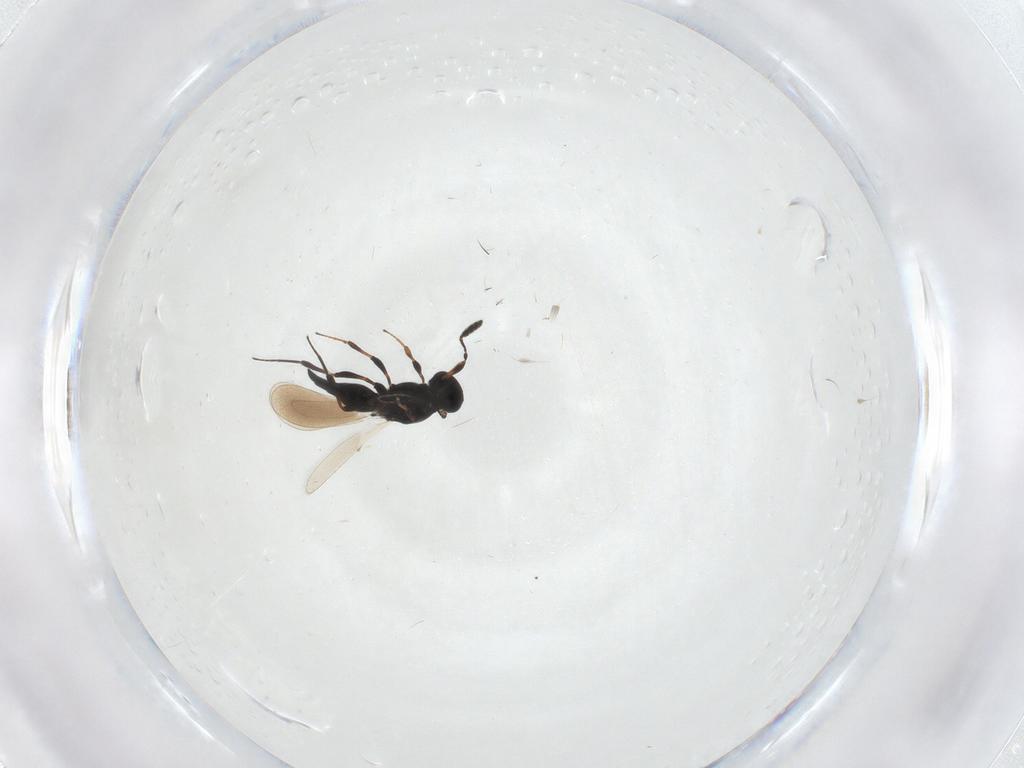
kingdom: Animalia
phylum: Arthropoda
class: Insecta
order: Hymenoptera
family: Platygastridae
